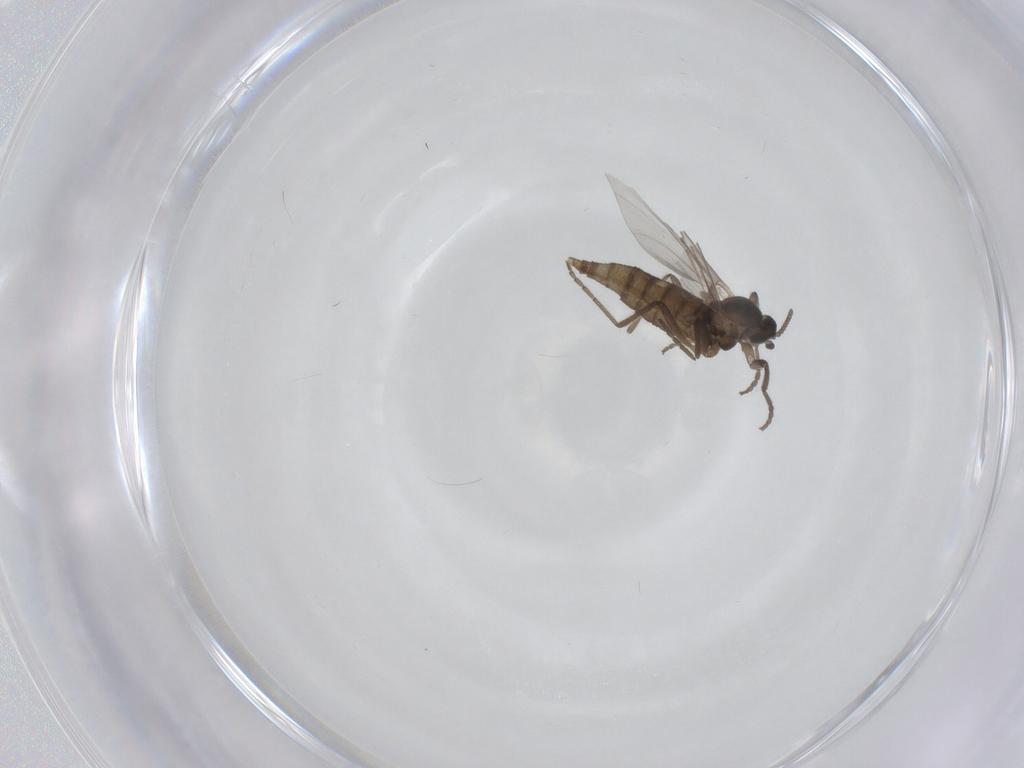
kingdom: Animalia
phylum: Arthropoda
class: Insecta
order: Diptera
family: Cecidomyiidae
